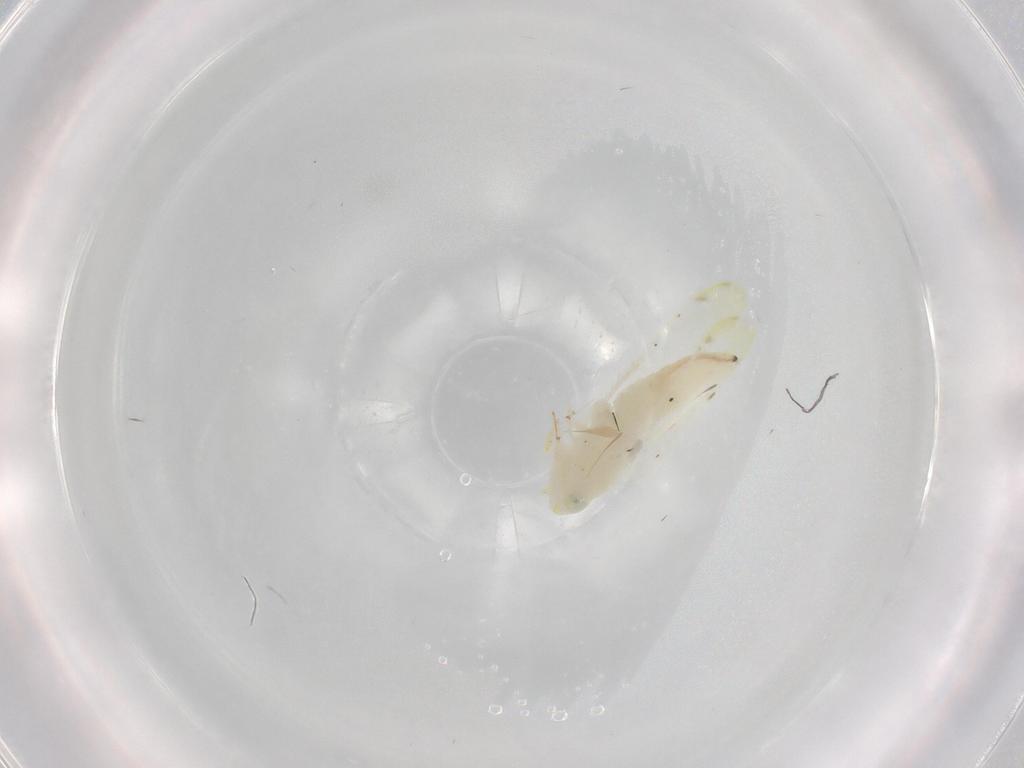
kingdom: Animalia
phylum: Arthropoda
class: Insecta
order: Hemiptera
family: Cicadellidae
